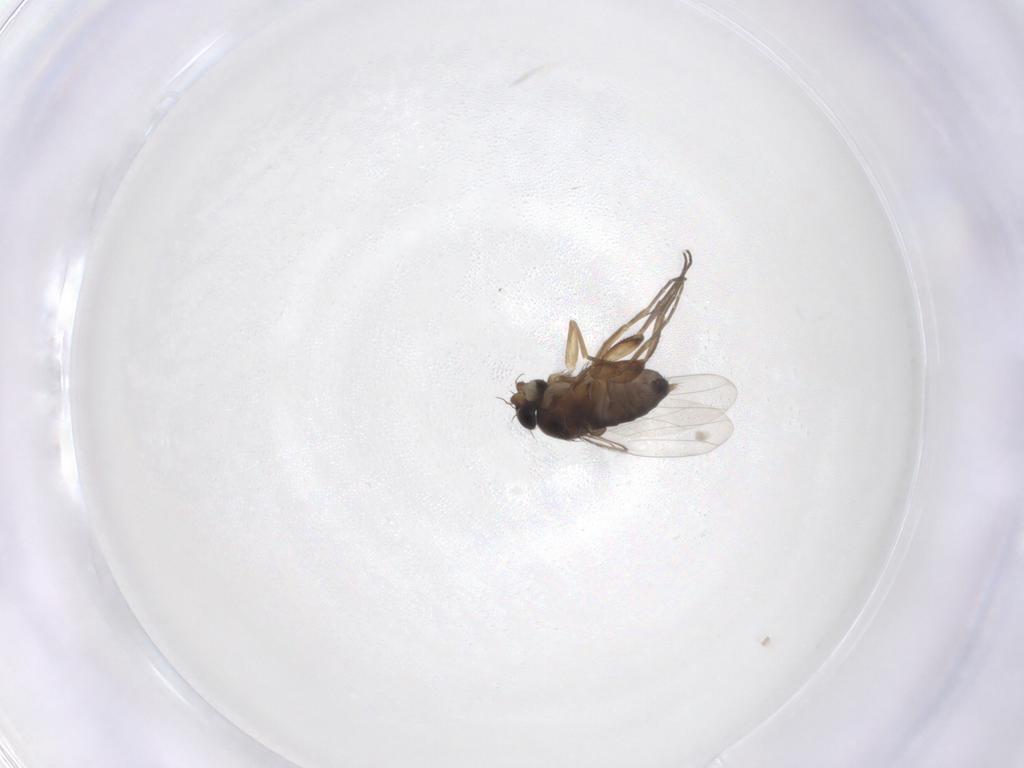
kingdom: Animalia
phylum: Arthropoda
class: Insecta
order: Diptera
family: Phoridae
